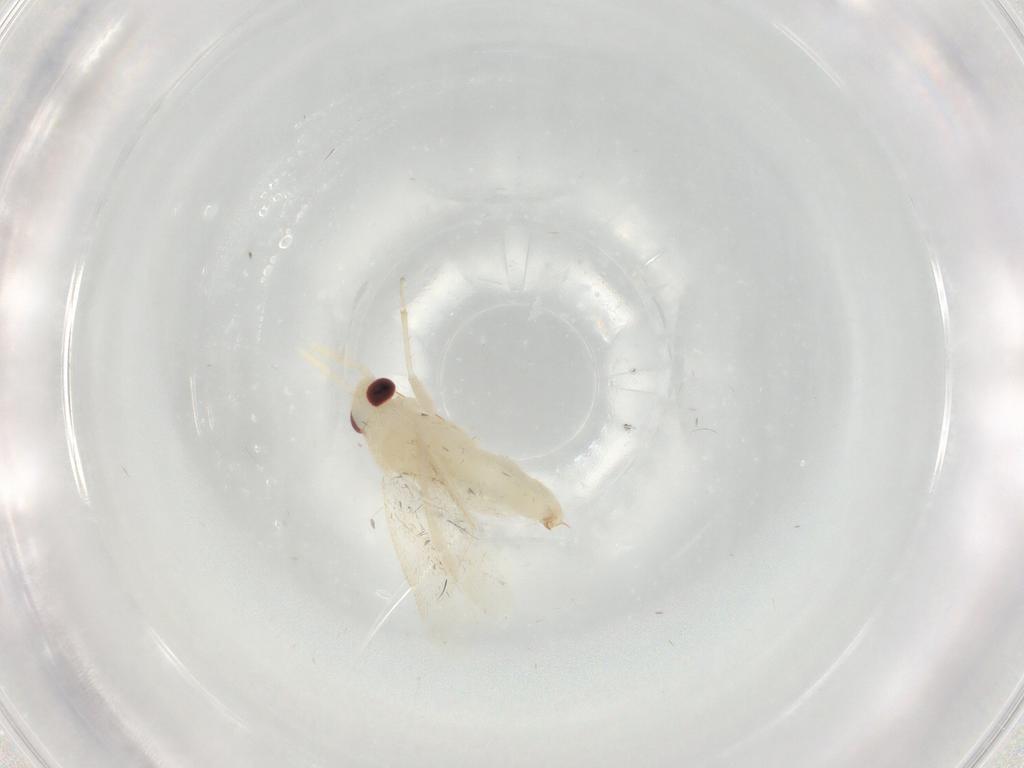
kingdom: Animalia
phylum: Arthropoda
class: Insecta
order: Hemiptera
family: Miridae
